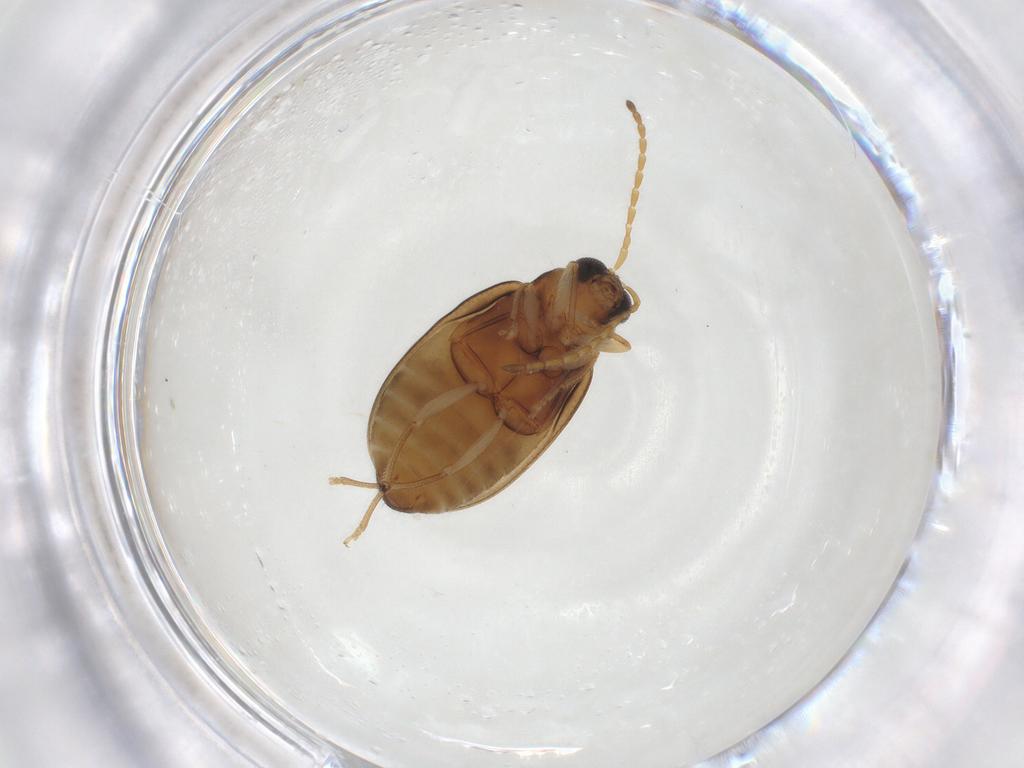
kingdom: Animalia
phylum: Arthropoda
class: Insecta
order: Coleoptera
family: Chrysomelidae
